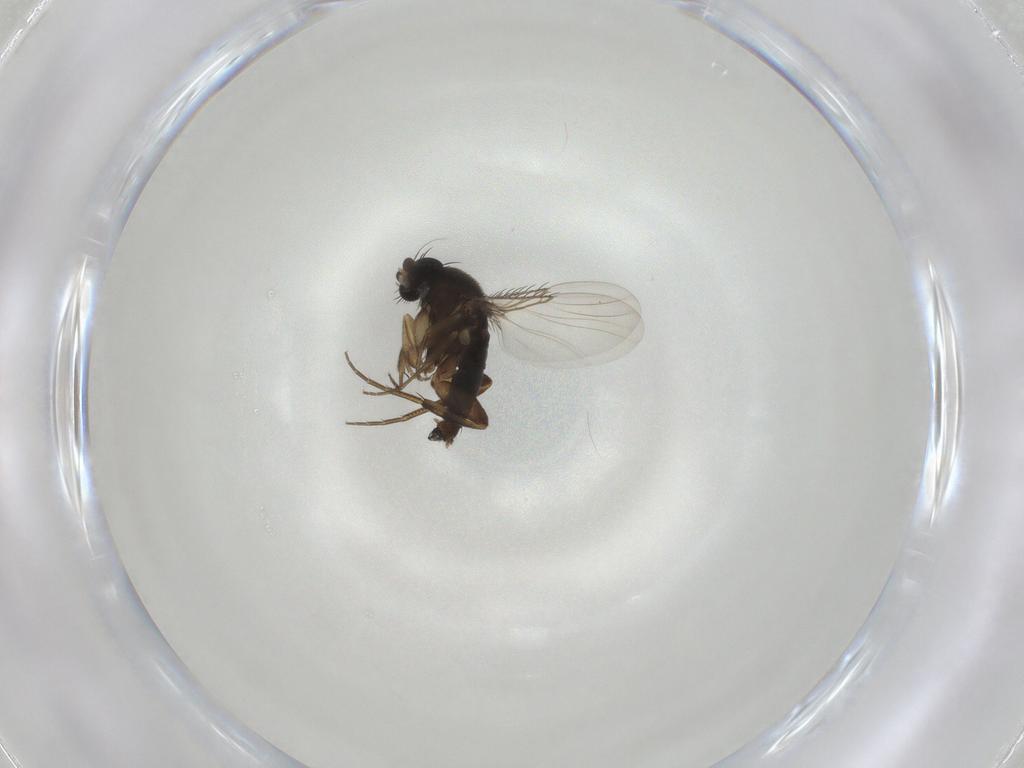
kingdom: Animalia
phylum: Arthropoda
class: Insecta
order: Diptera
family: Phoridae
